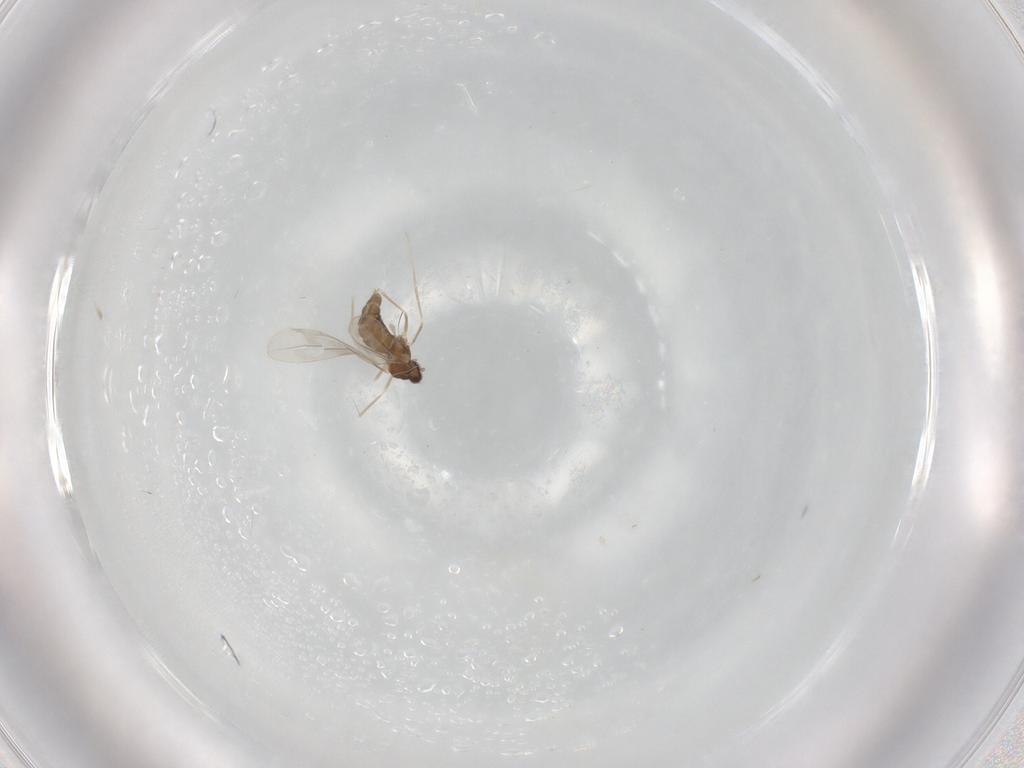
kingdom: Animalia
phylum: Arthropoda
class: Insecta
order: Diptera
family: Cecidomyiidae
